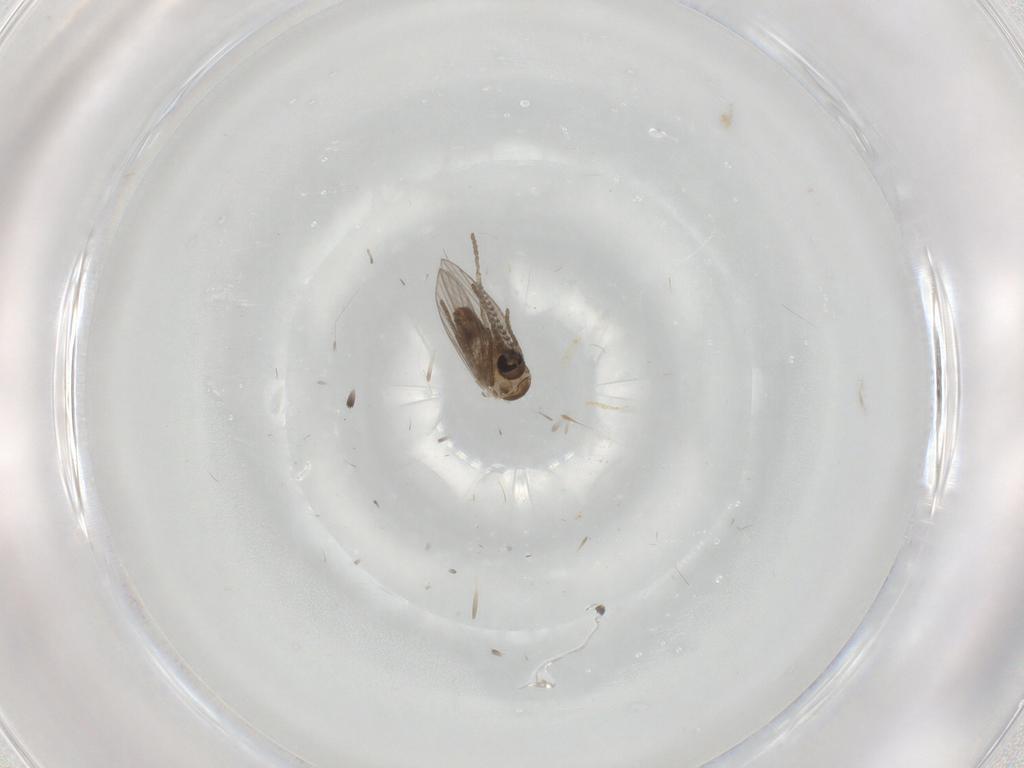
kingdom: Animalia
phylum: Arthropoda
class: Insecta
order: Diptera
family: Psychodidae
